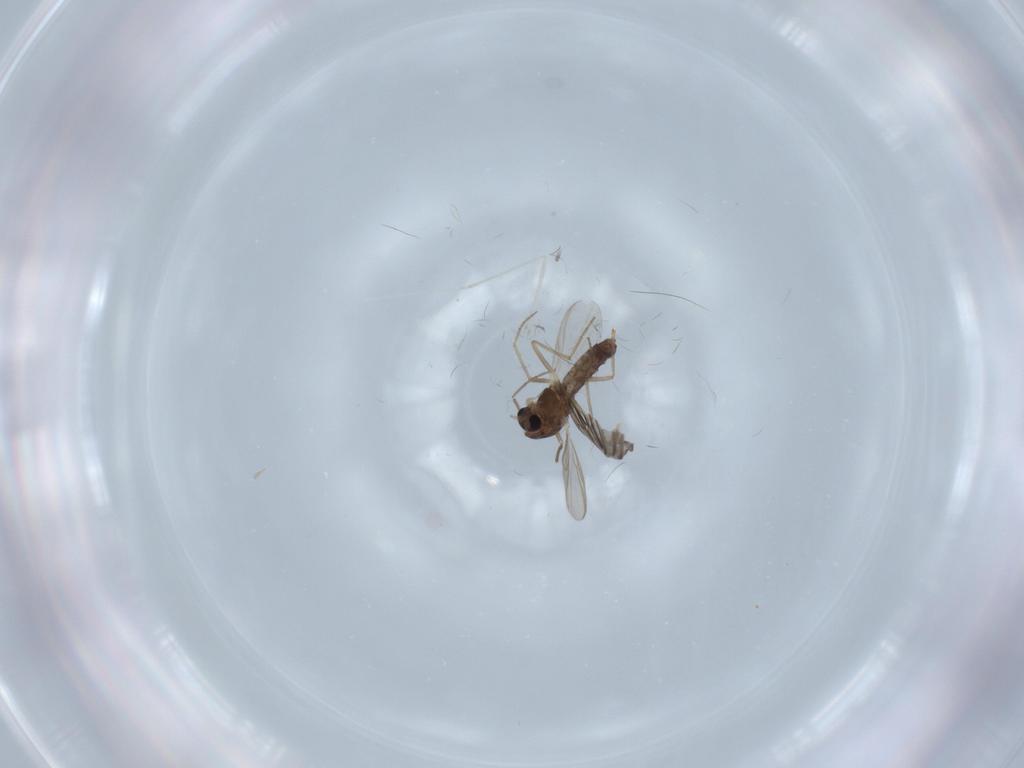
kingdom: Animalia
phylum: Arthropoda
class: Insecta
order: Diptera
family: Chironomidae
